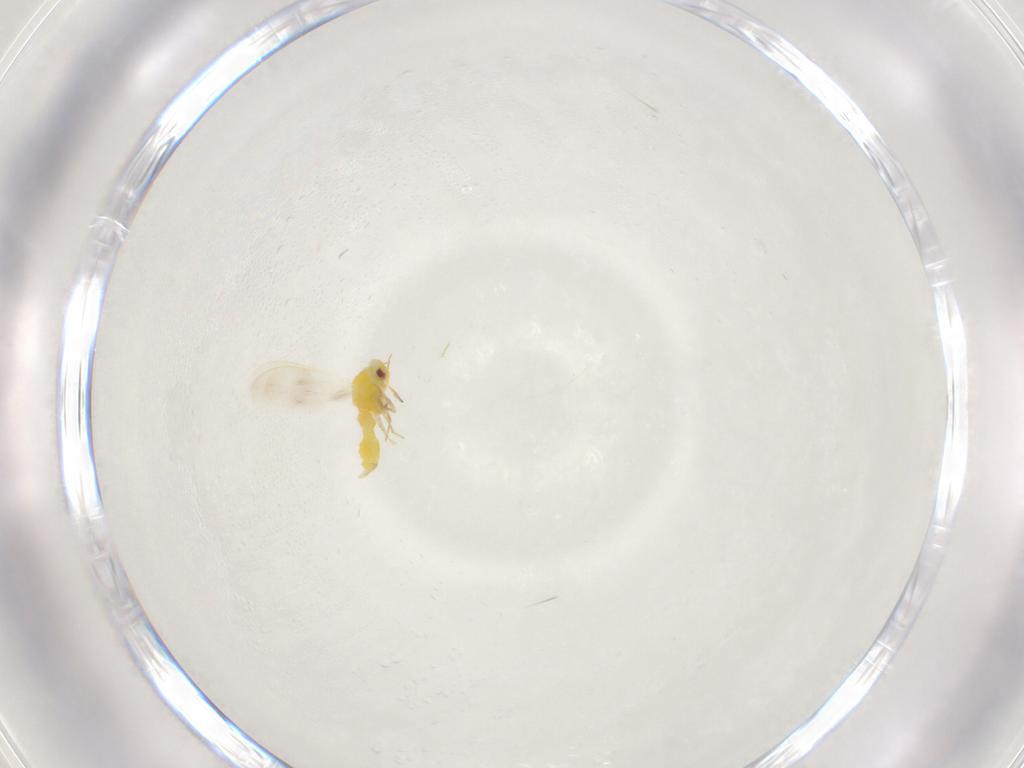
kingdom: Animalia
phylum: Arthropoda
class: Insecta
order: Hemiptera
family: Aleyrodidae
